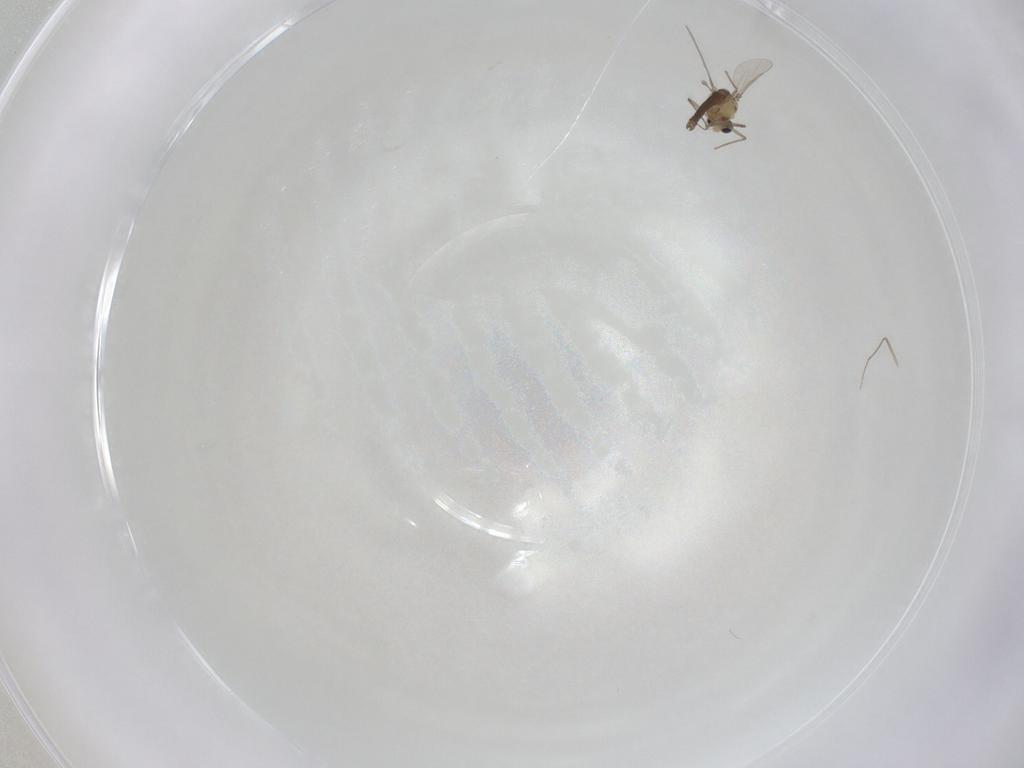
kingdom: Animalia
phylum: Arthropoda
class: Insecta
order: Diptera
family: Chironomidae
